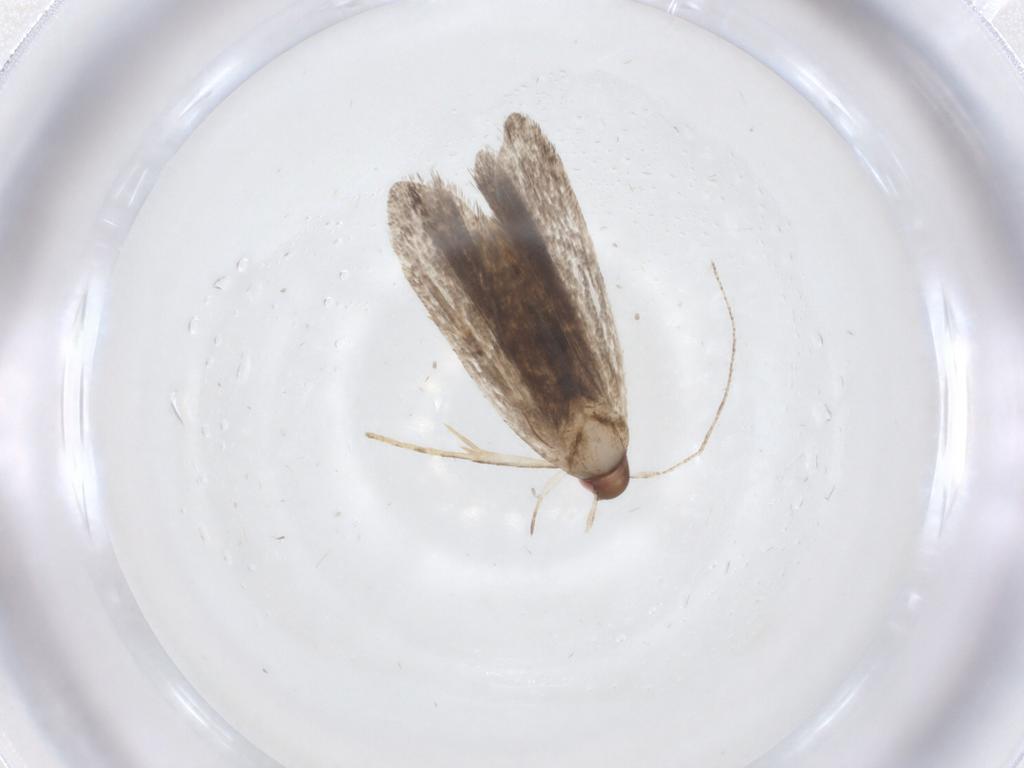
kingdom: Animalia
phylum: Arthropoda
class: Insecta
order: Lepidoptera
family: Gelechiidae
